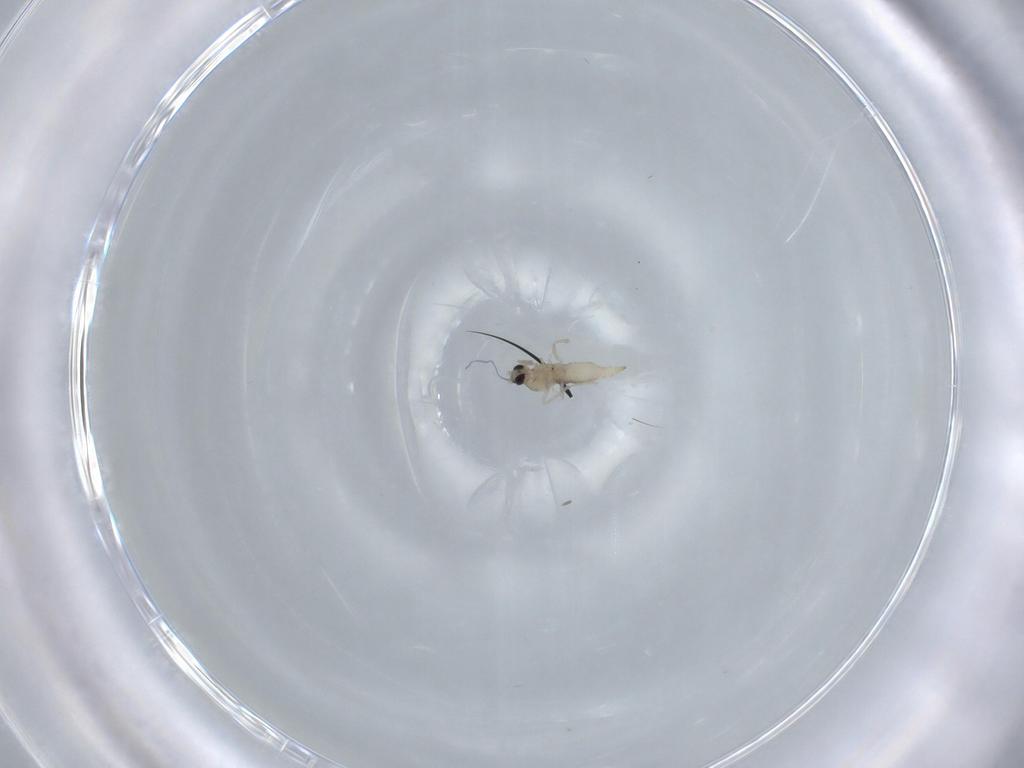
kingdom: Animalia
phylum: Arthropoda
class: Insecta
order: Diptera
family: Cecidomyiidae
